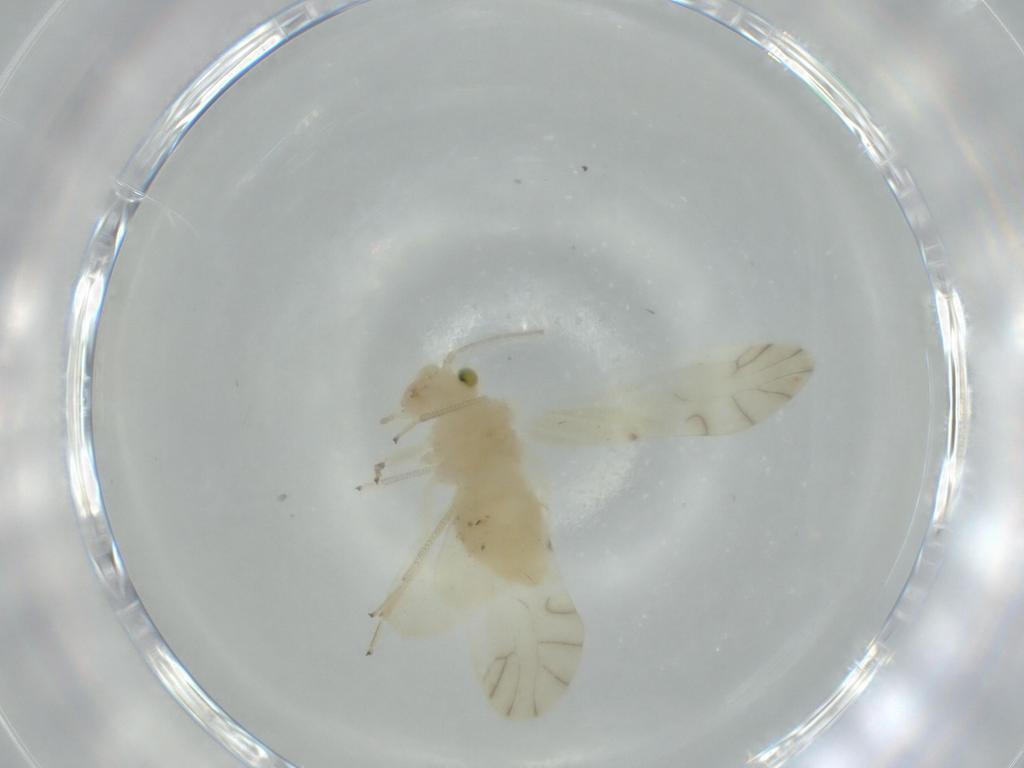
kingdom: Animalia
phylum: Arthropoda
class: Insecta
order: Psocodea
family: Caeciliusidae
